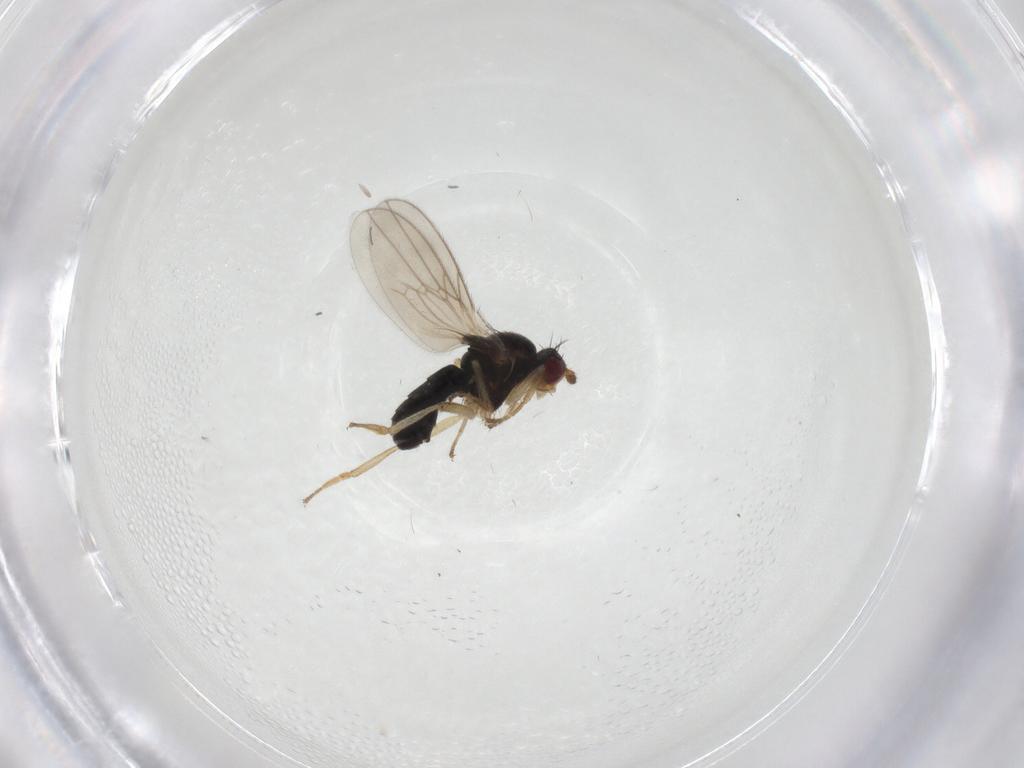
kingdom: Animalia
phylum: Arthropoda
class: Insecta
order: Diptera
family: Sphaeroceridae
